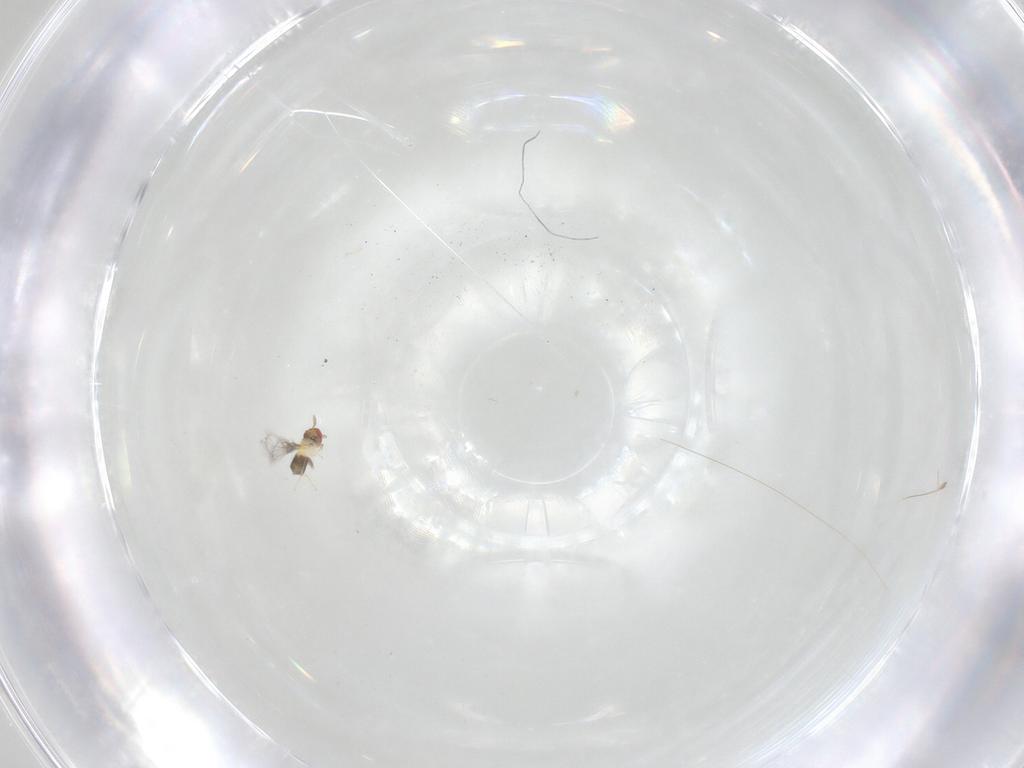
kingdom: Animalia
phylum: Arthropoda
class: Insecta
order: Hymenoptera
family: Trichogrammatidae
